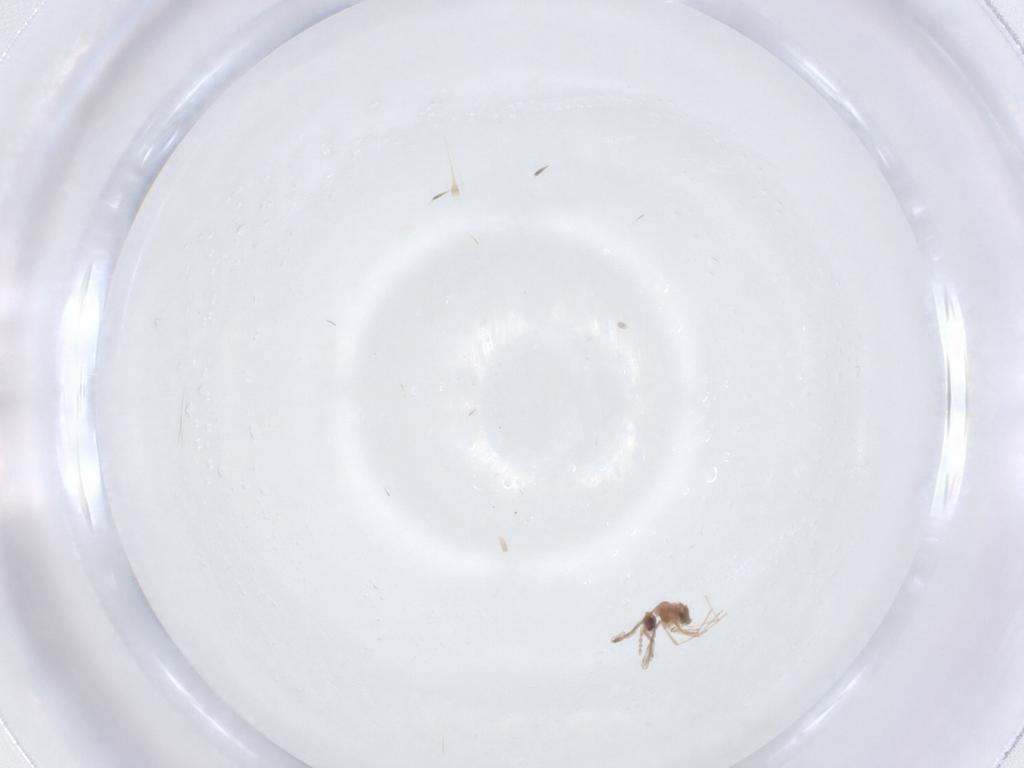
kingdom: Animalia
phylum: Arthropoda
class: Insecta
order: Diptera
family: Cecidomyiidae
